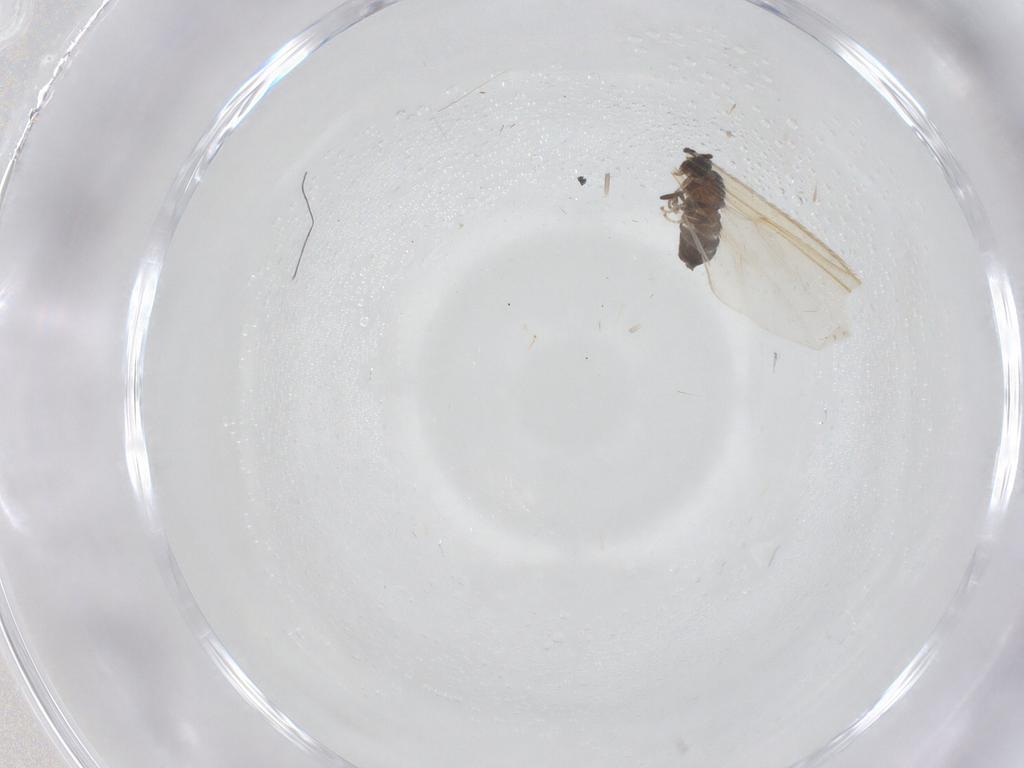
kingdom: Animalia
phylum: Arthropoda
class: Insecta
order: Diptera
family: Scatopsidae
